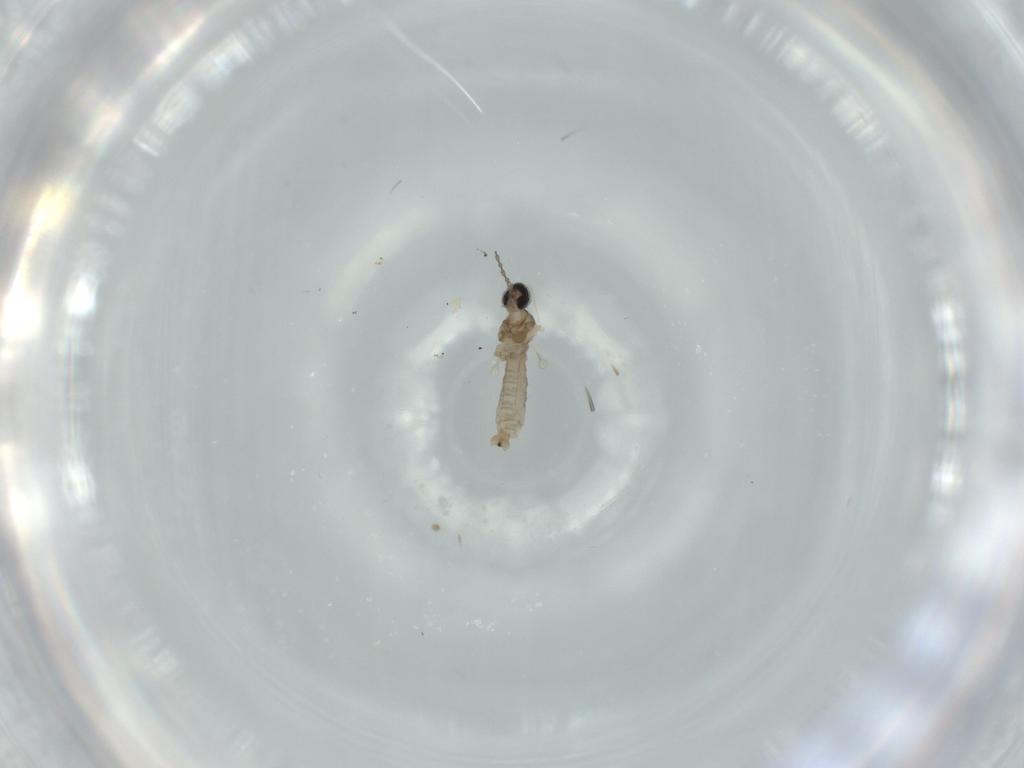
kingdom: Animalia
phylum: Arthropoda
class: Insecta
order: Diptera
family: Cecidomyiidae
